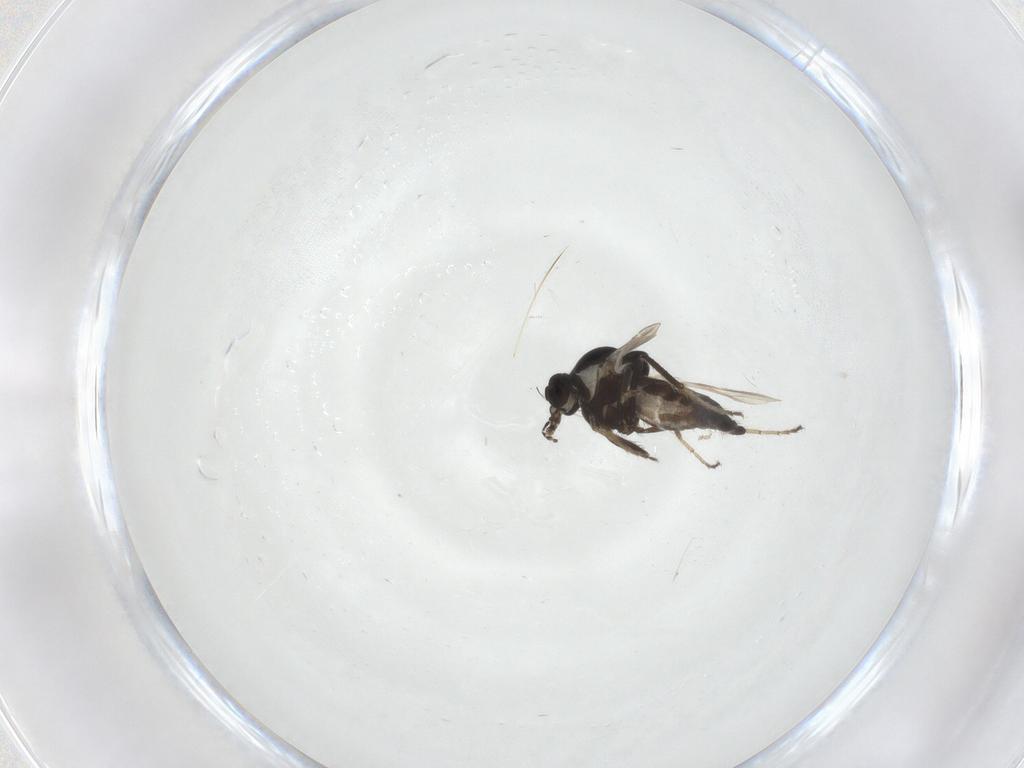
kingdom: Animalia
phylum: Arthropoda
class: Insecta
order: Diptera
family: Ceratopogonidae
